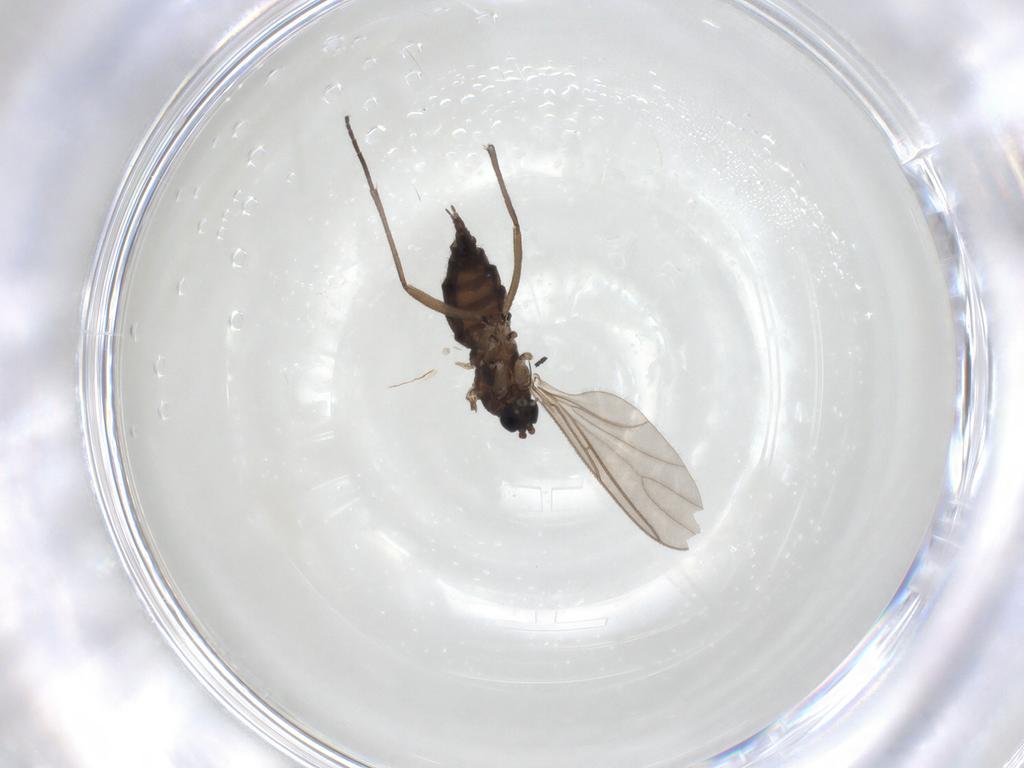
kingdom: Animalia
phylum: Arthropoda
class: Insecta
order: Diptera
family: Sciaridae
